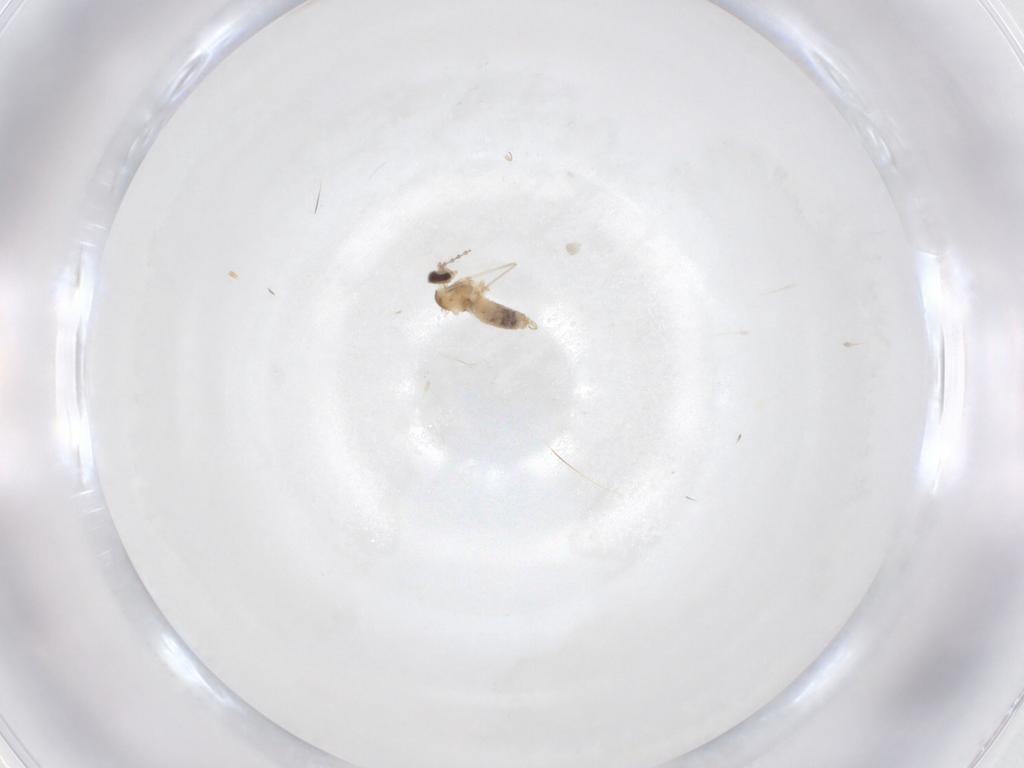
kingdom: Animalia
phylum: Arthropoda
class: Insecta
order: Diptera
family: Cecidomyiidae
